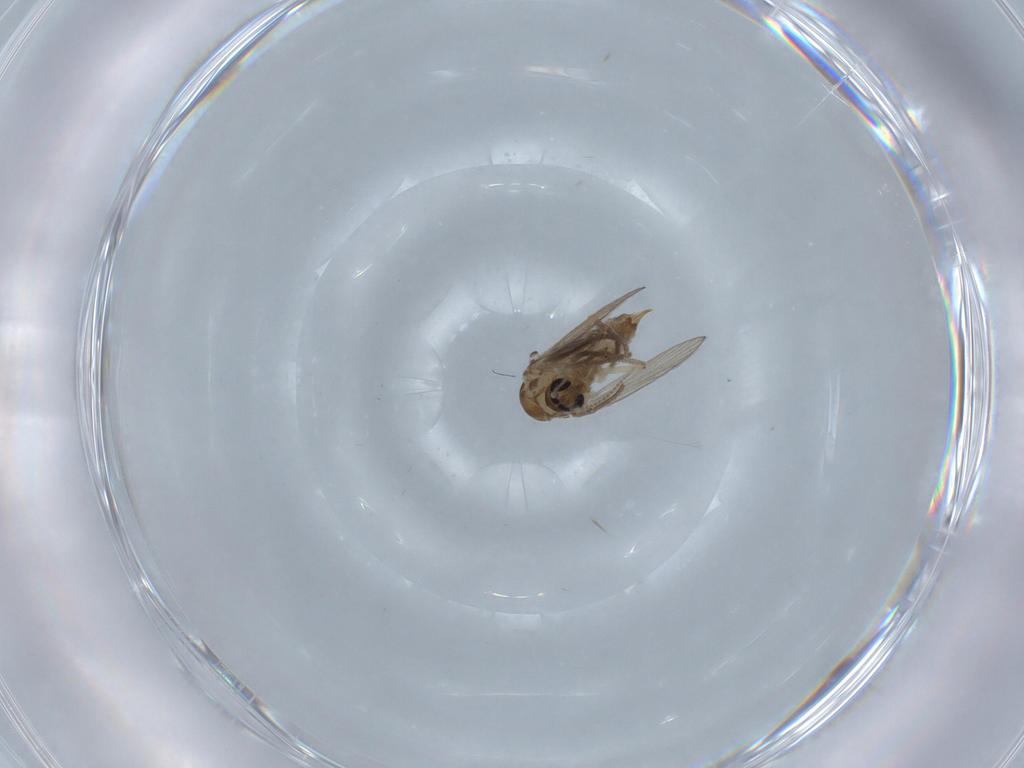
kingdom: Animalia
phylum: Arthropoda
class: Insecta
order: Diptera
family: Psychodidae
